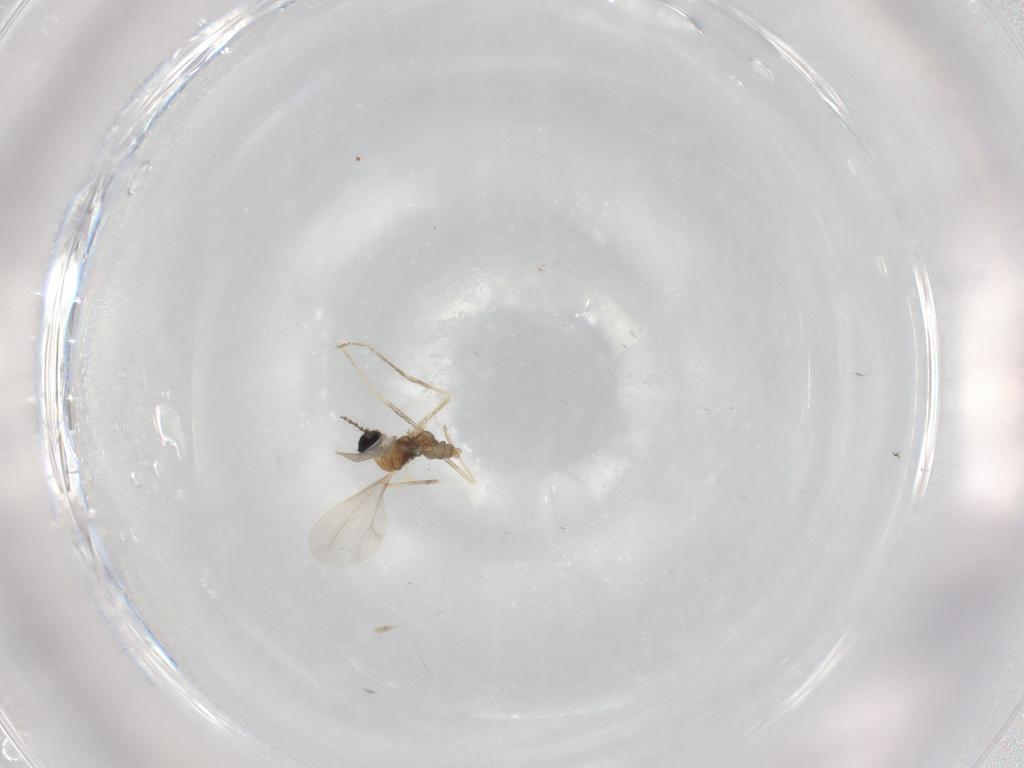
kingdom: Animalia
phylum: Arthropoda
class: Insecta
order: Diptera
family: Cecidomyiidae
